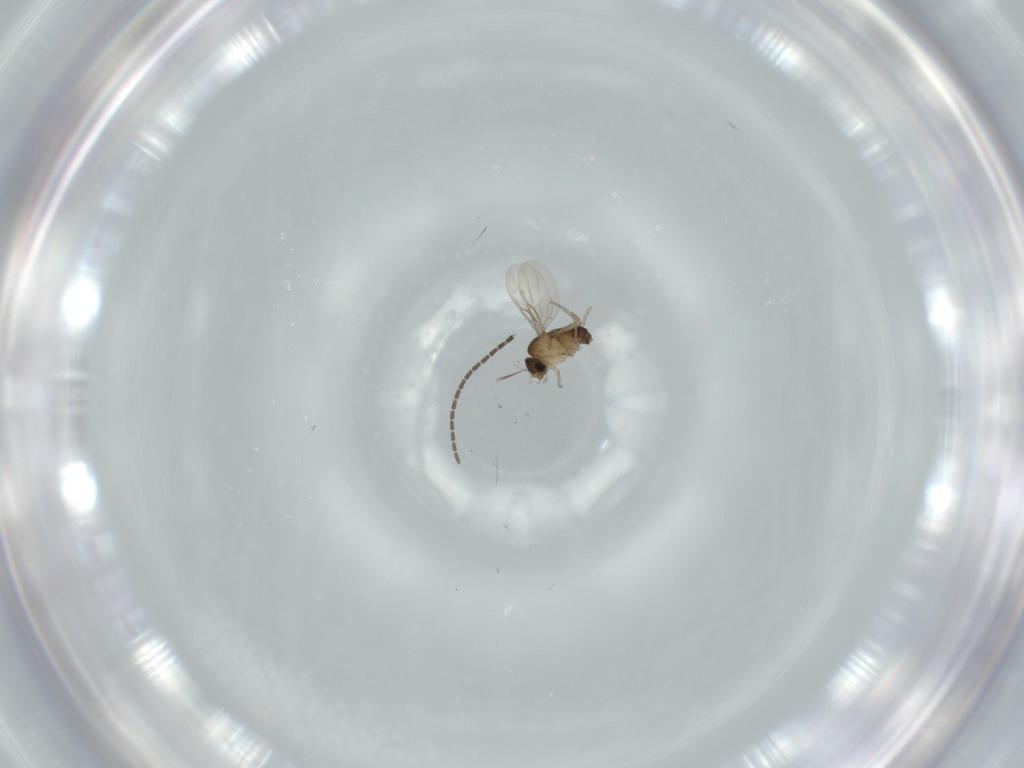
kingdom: Animalia
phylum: Arthropoda
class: Insecta
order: Diptera
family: Phoridae
